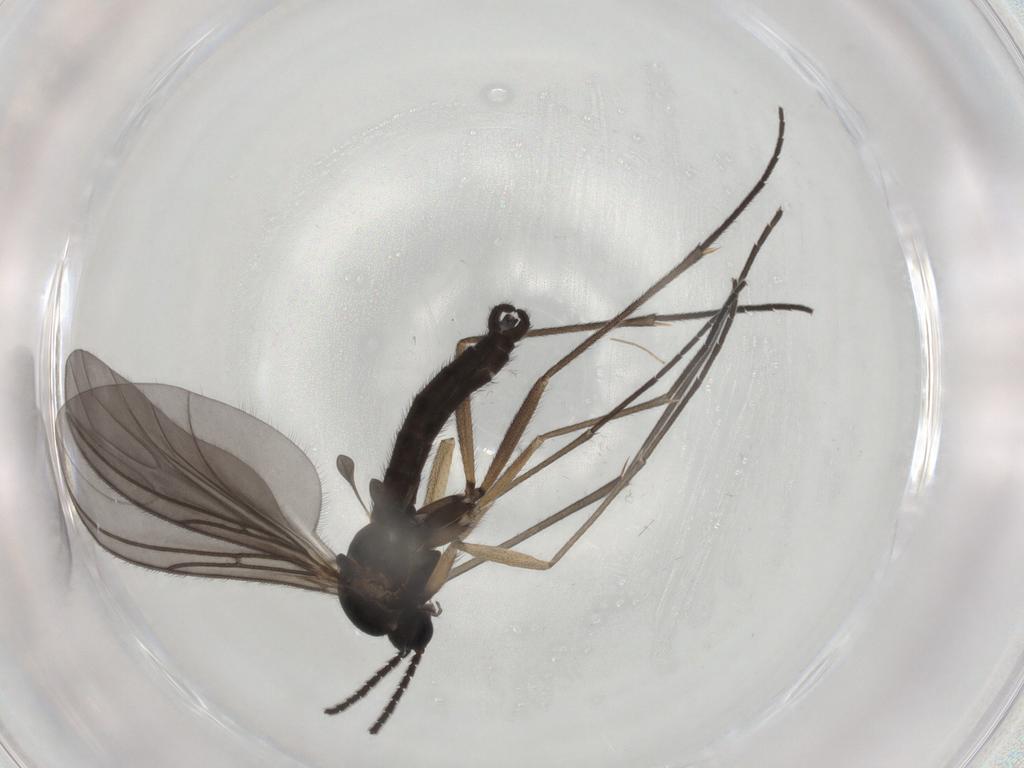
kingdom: Animalia
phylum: Arthropoda
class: Insecta
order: Diptera
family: Sciaridae
